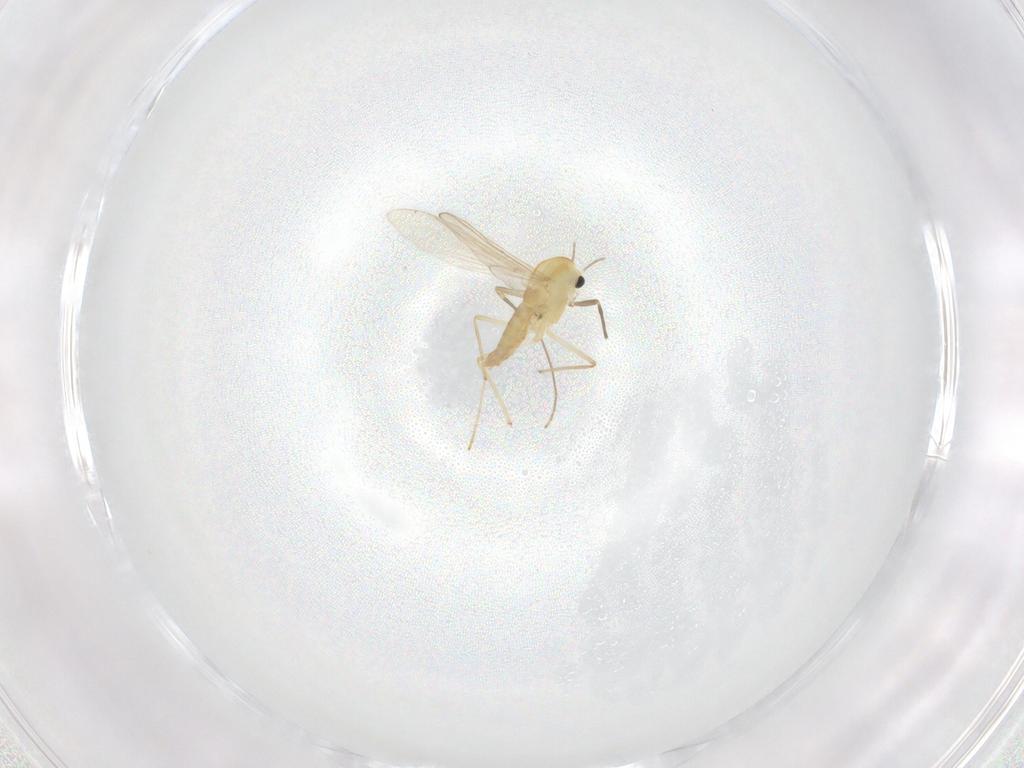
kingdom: Animalia
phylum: Arthropoda
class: Insecta
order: Diptera
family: Chironomidae
